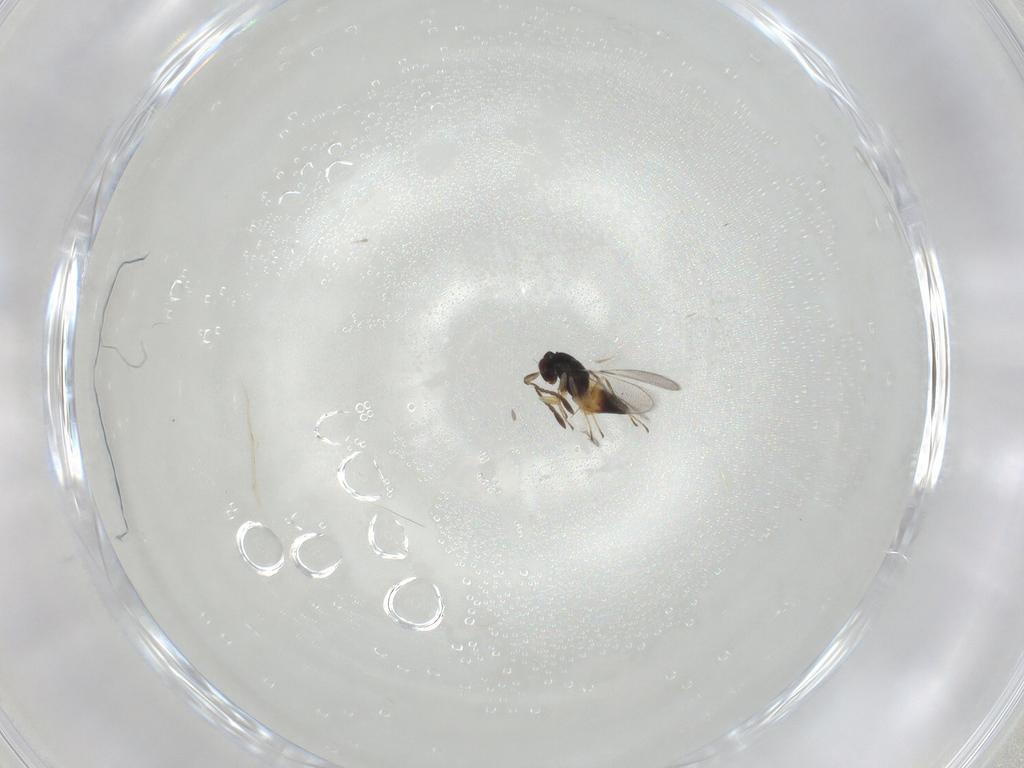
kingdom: Animalia
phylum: Arthropoda
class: Insecta
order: Hymenoptera
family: Mymaridae
